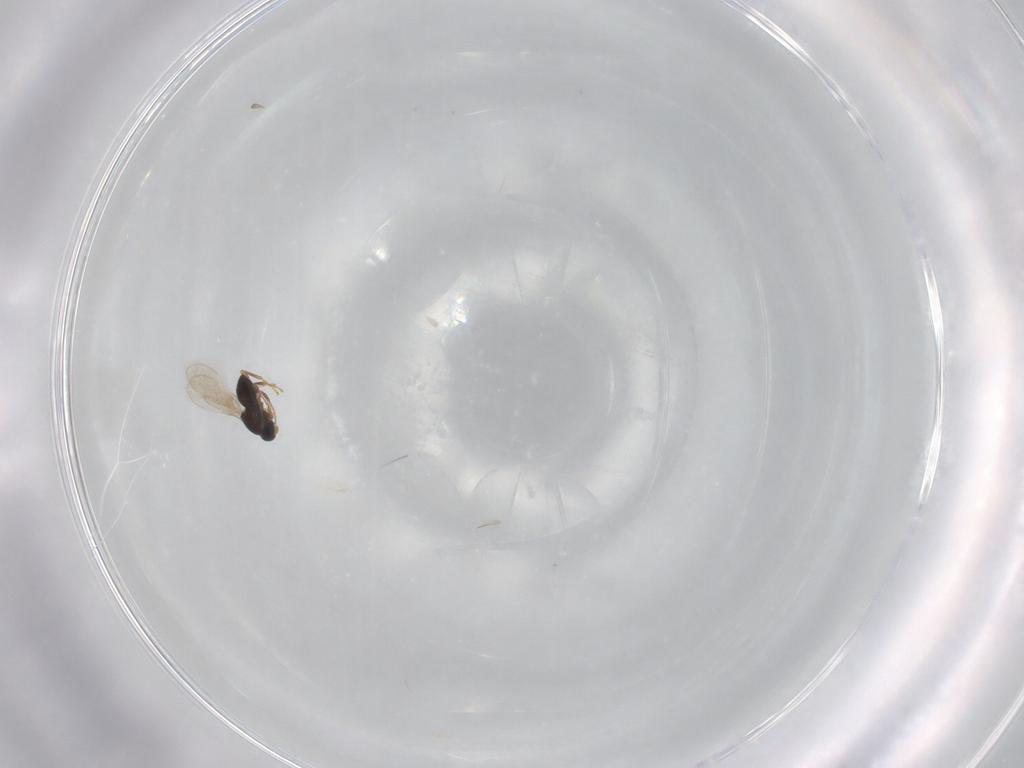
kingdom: Animalia
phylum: Arthropoda
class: Insecta
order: Hymenoptera
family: Platygastridae
